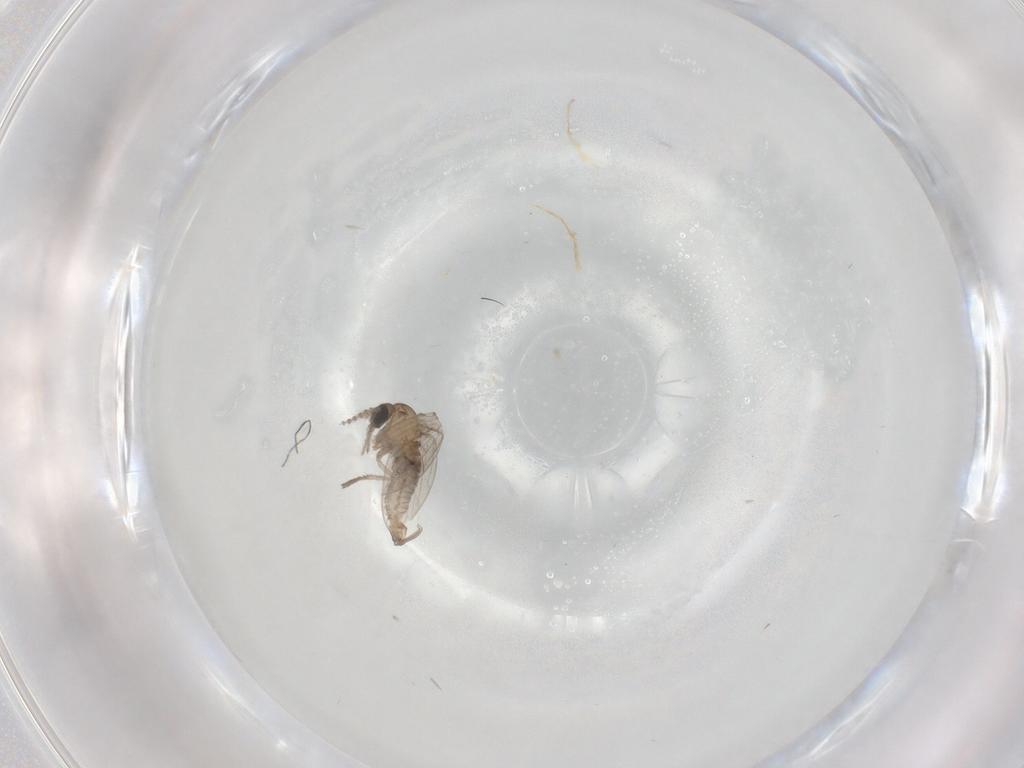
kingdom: Animalia
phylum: Arthropoda
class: Insecta
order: Diptera
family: Psychodidae
